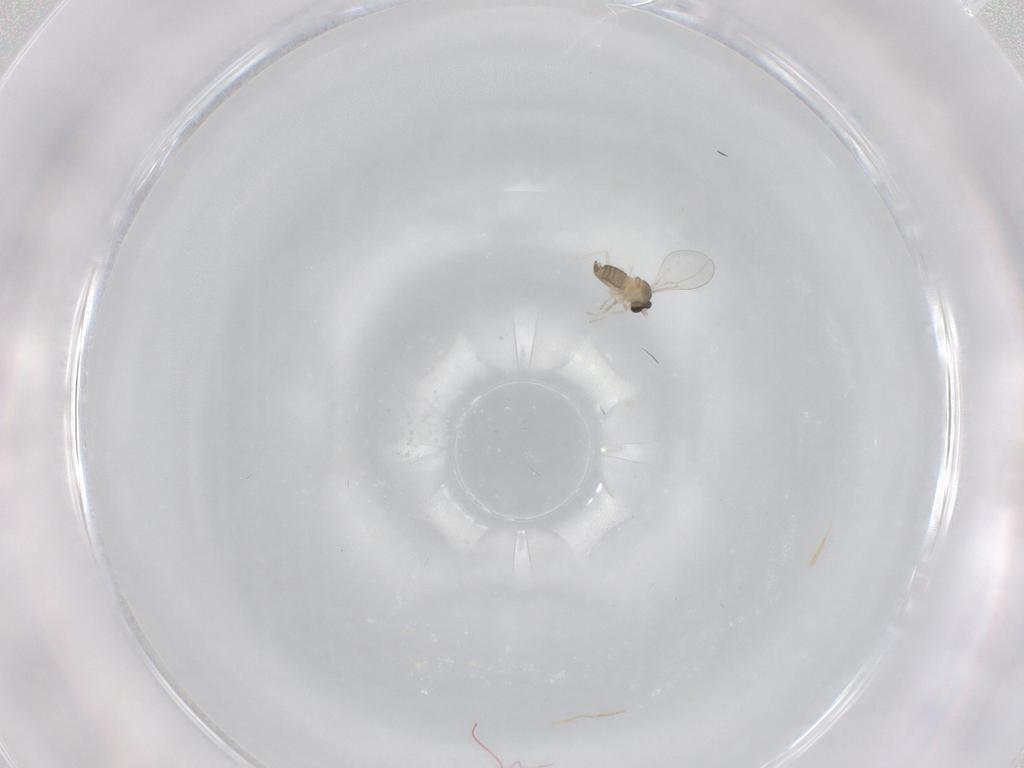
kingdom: Animalia
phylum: Arthropoda
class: Insecta
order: Diptera
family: Cecidomyiidae
